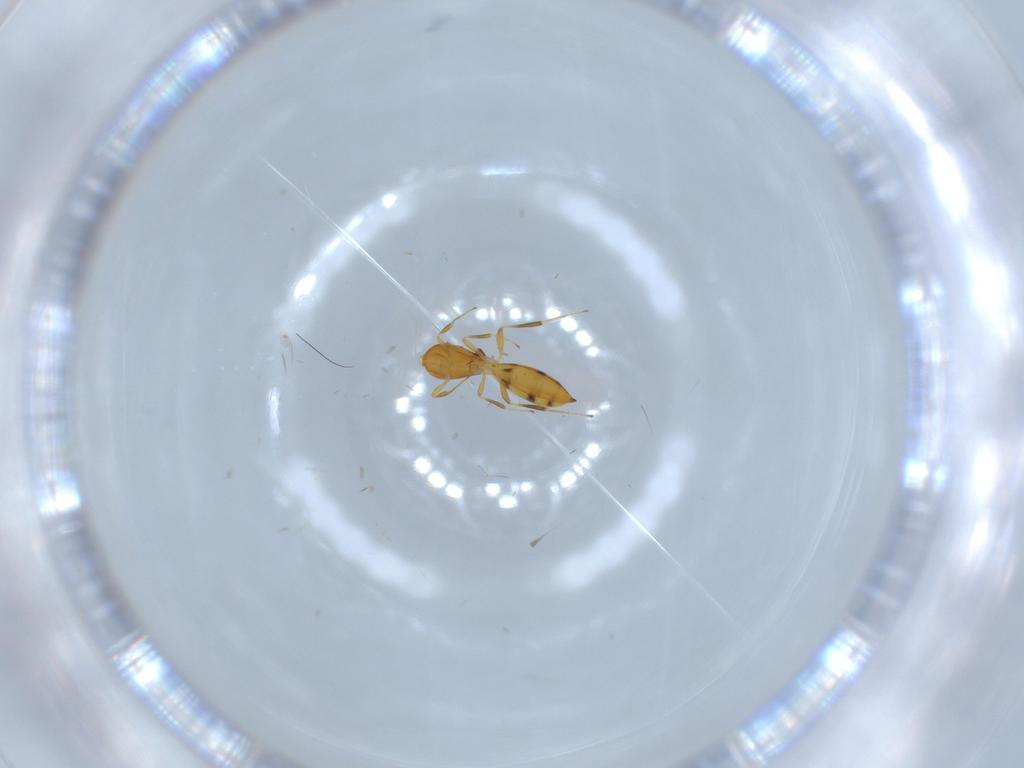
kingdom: Animalia
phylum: Arthropoda
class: Insecta
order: Hymenoptera
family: Scelionidae
